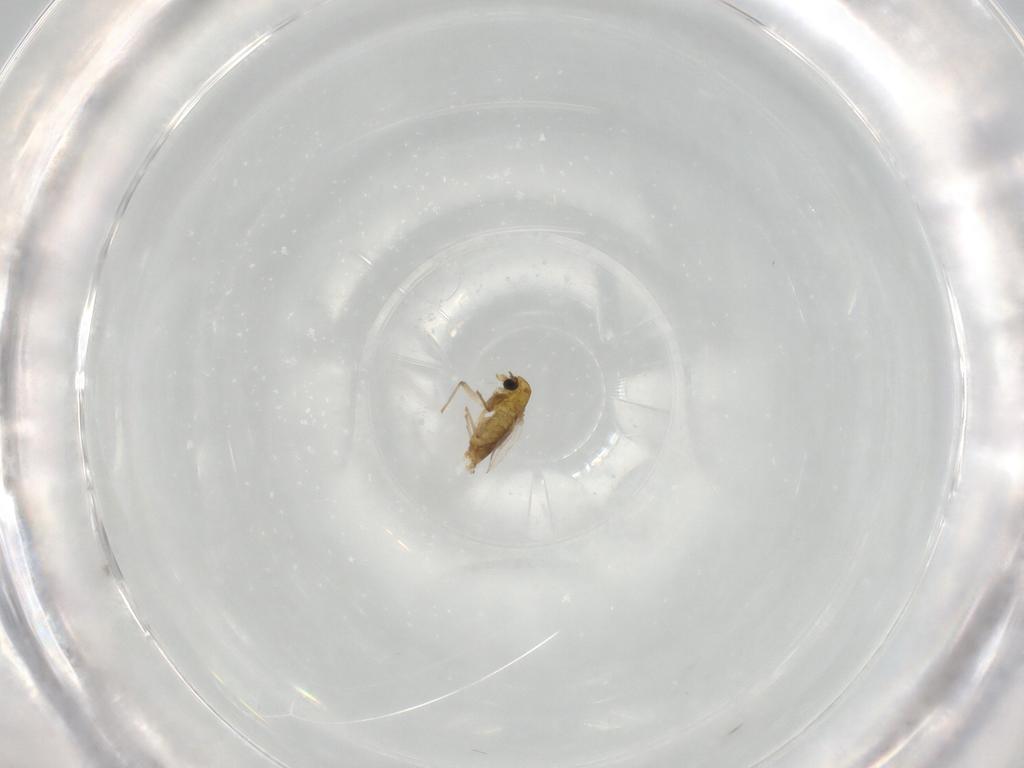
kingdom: Animalia
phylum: Arthropoda
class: Insecta
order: Diptera
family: Chironomidae
